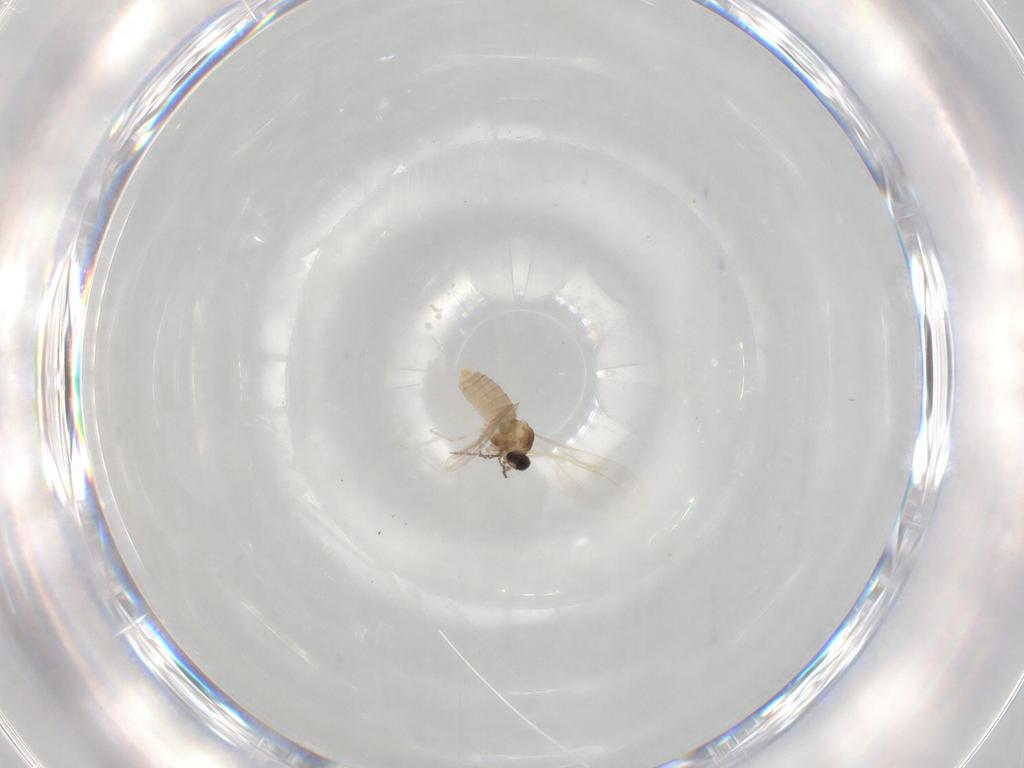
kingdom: Animalia
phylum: Arthropoda
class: Insecta
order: Diptera
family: Cecidomyiidae
